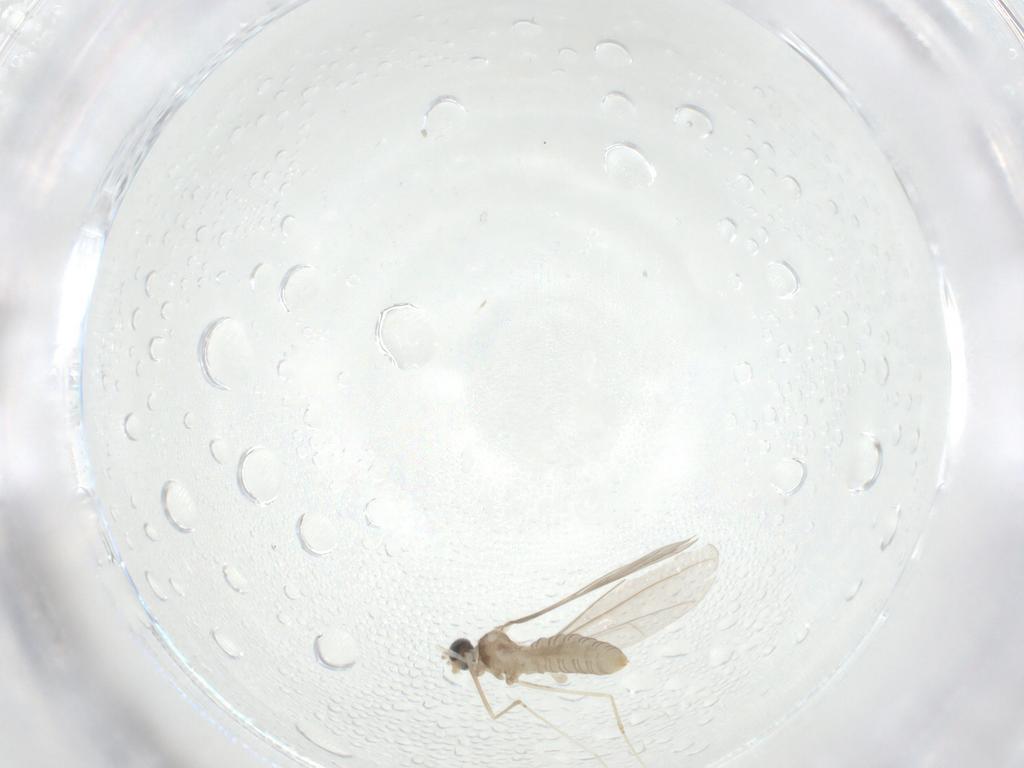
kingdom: Animalia
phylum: Arthropoda
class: Insecta
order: Diptera
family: Cecidomyiidae
